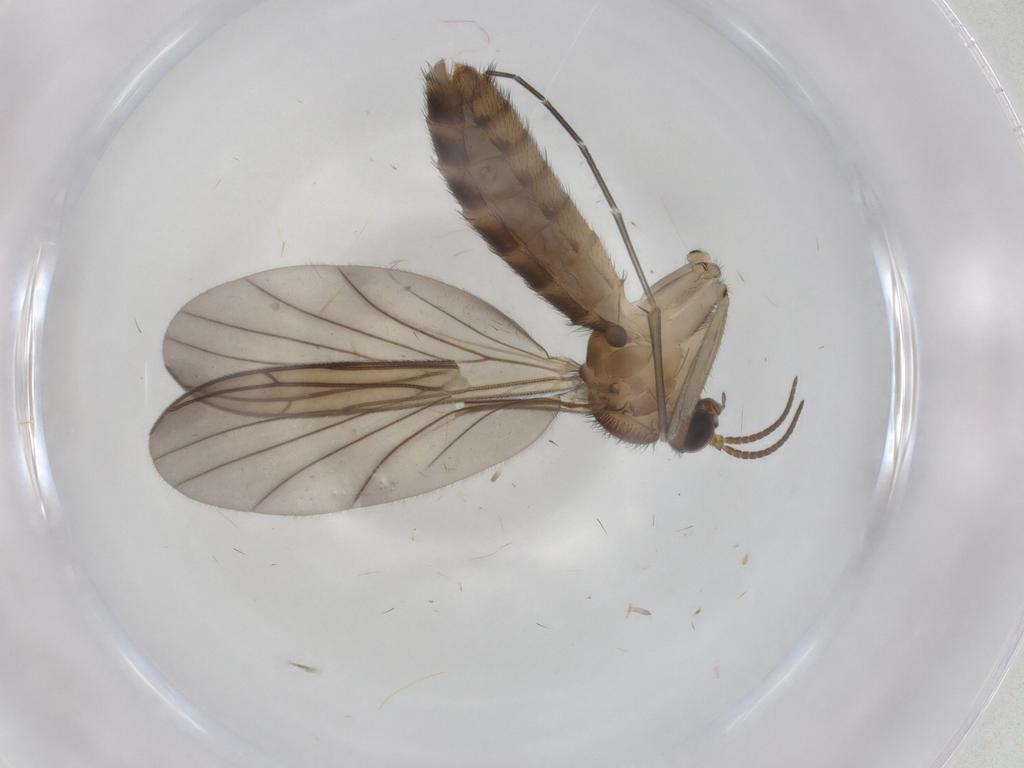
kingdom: Animalia
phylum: Arthropoda
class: Insecta
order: Diptera
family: Keroplatidae
